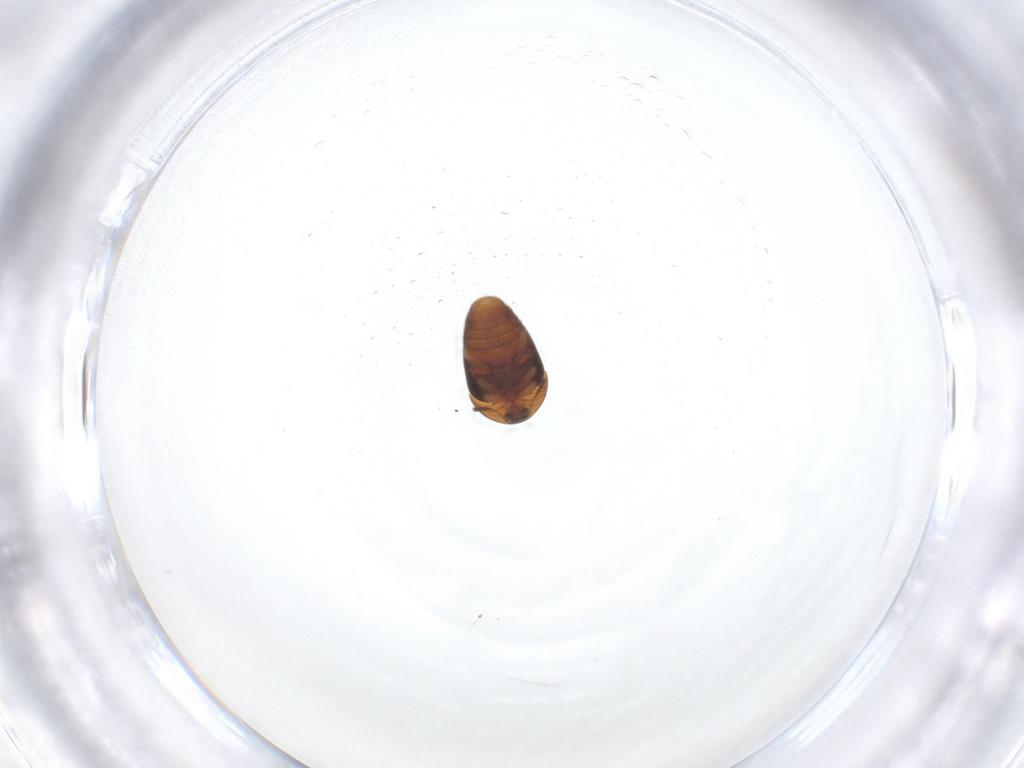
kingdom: Animalia
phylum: Arthropoda
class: Insecta
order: Coleoptera
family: Corylophidae
